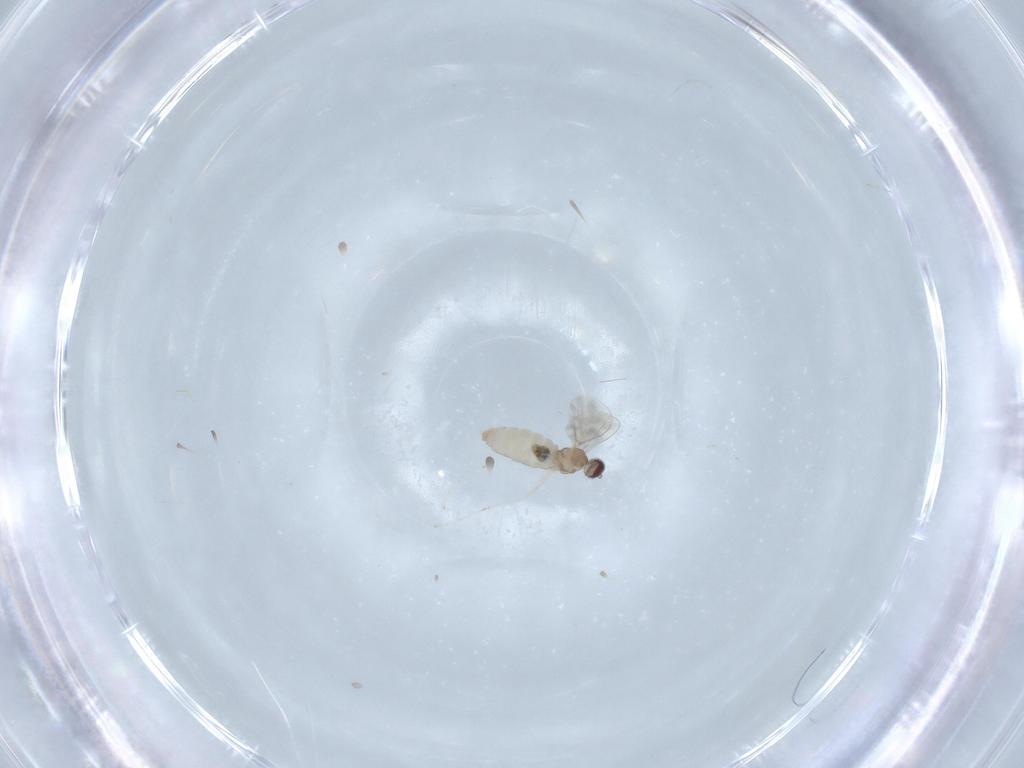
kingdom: Animalia
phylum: Arthropoda
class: Insecta
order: Diptera
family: Cecidomyiidae
